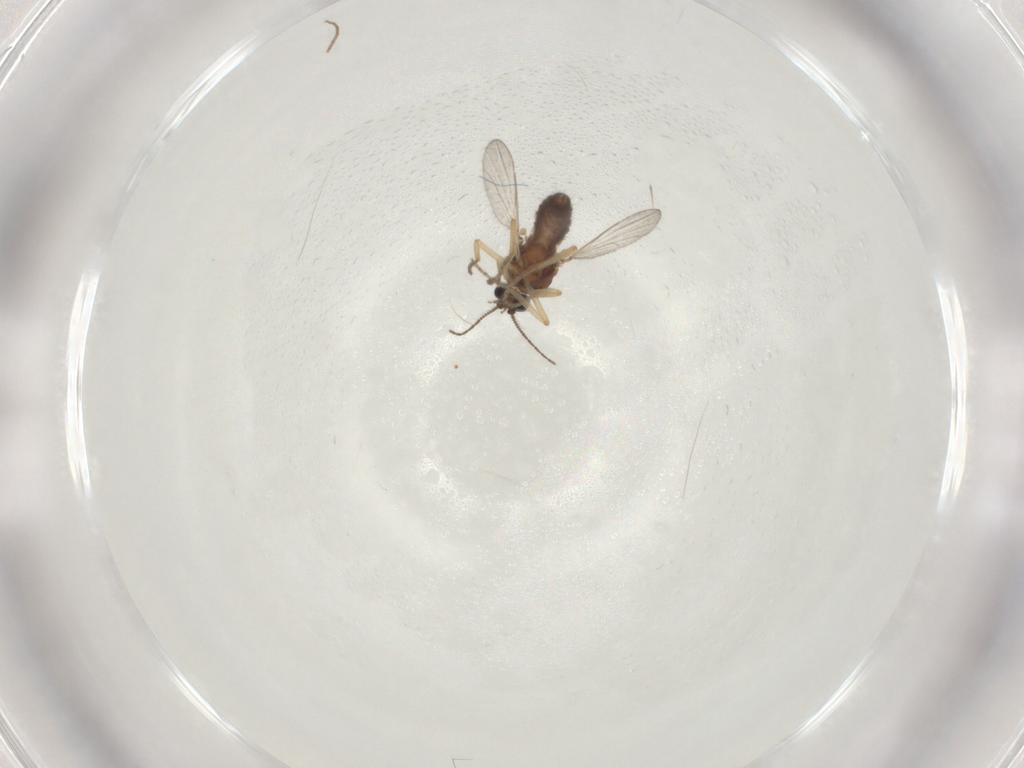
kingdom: Animalia
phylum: Arthropoda
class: Insecta
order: Diptera
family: Ceratopogonidae
